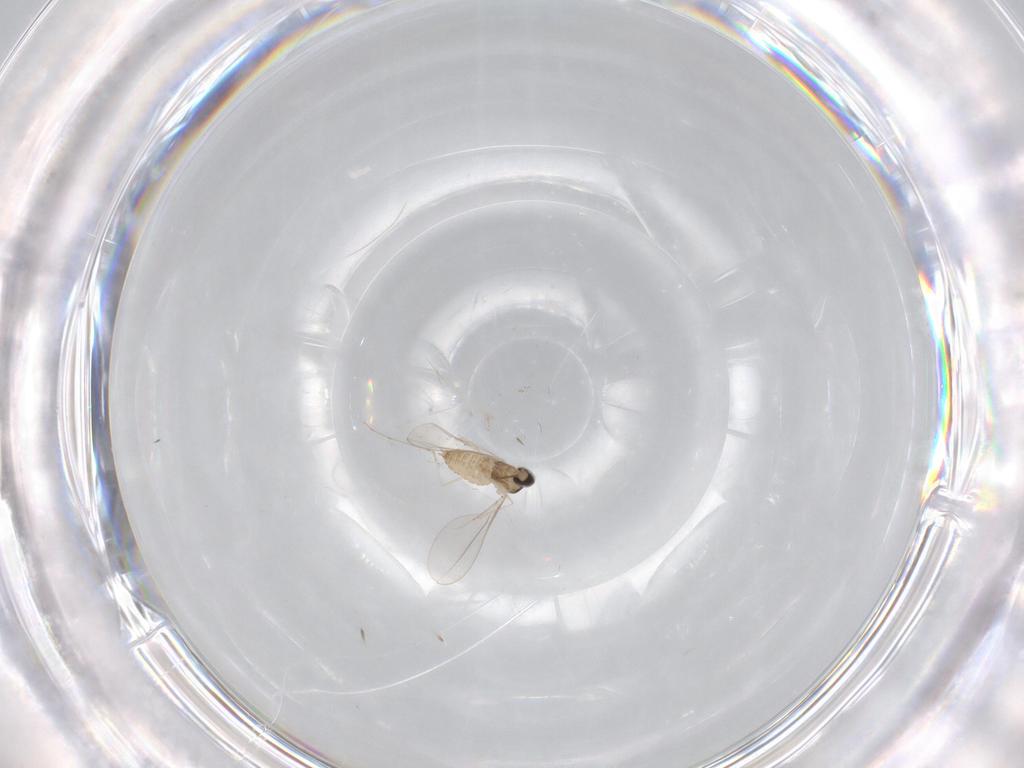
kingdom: Animalia
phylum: Arthropoda
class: Insecta
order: Diptera
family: Cecidomyiidae
